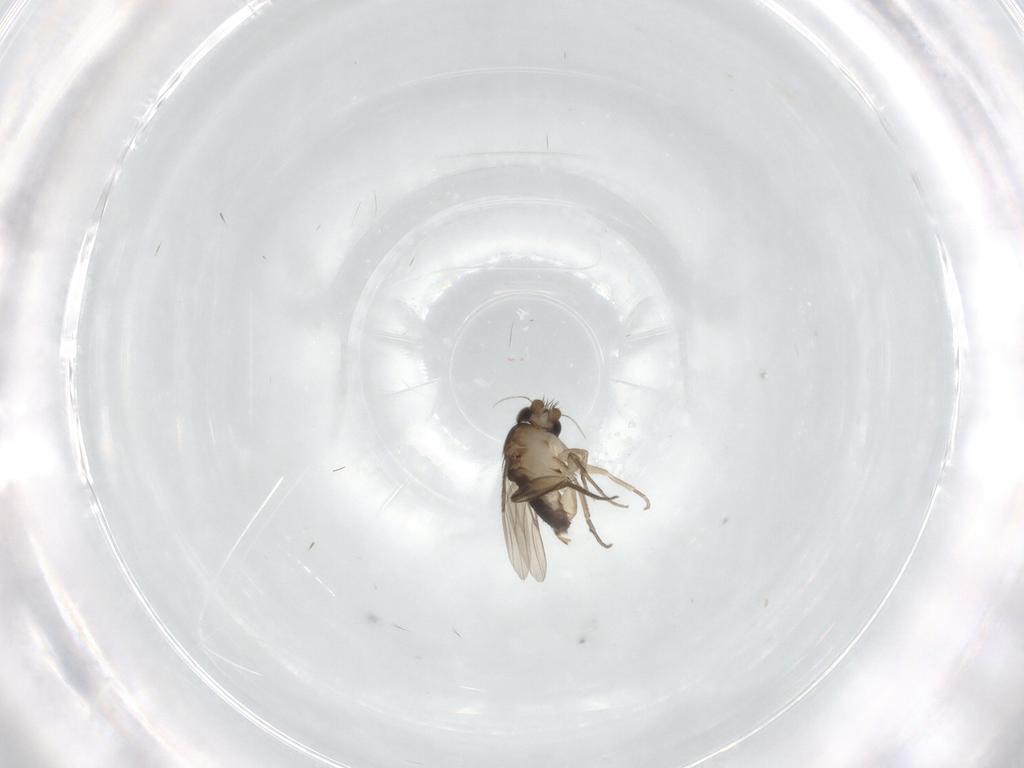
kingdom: Animalia
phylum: Arthropoda
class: Insecta
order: Diptera
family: Phoridae
